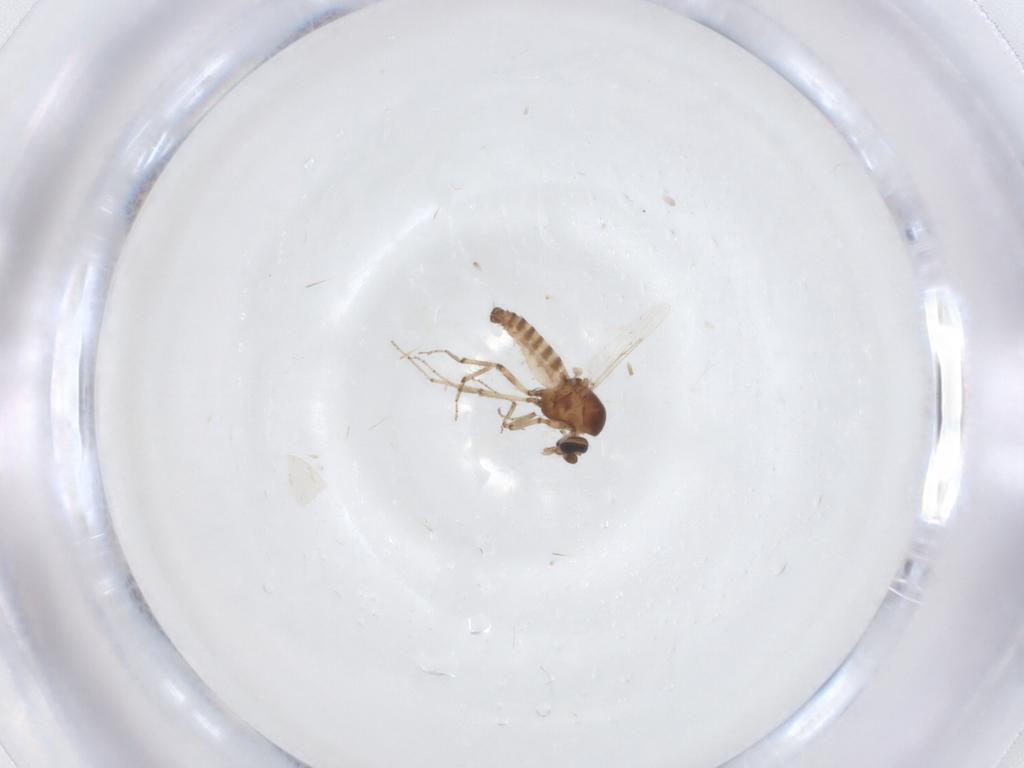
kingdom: Animalia
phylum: Arthropoda
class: Insecta
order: Diptera
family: Ceratopogonidae
